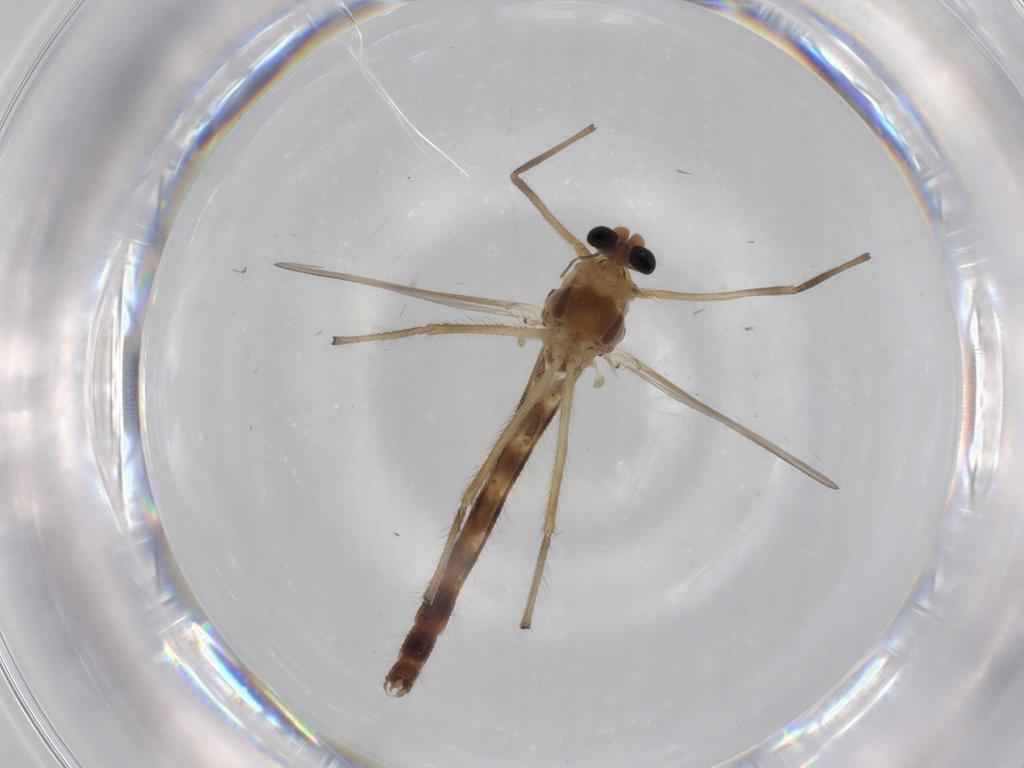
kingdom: Animalia
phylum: Arthropoda
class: Insecta
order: Diptera
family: Chironomidae
